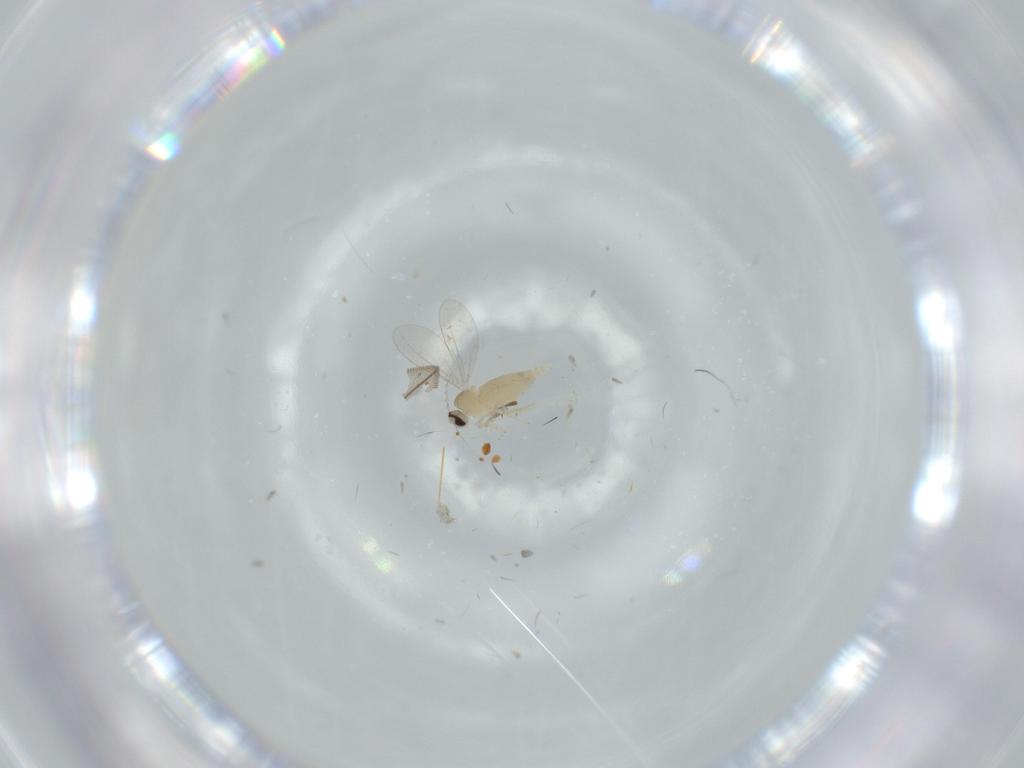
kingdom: Animalia
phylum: Arthropoda
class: Insecta
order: Diptera
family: Cecidomyiidae
